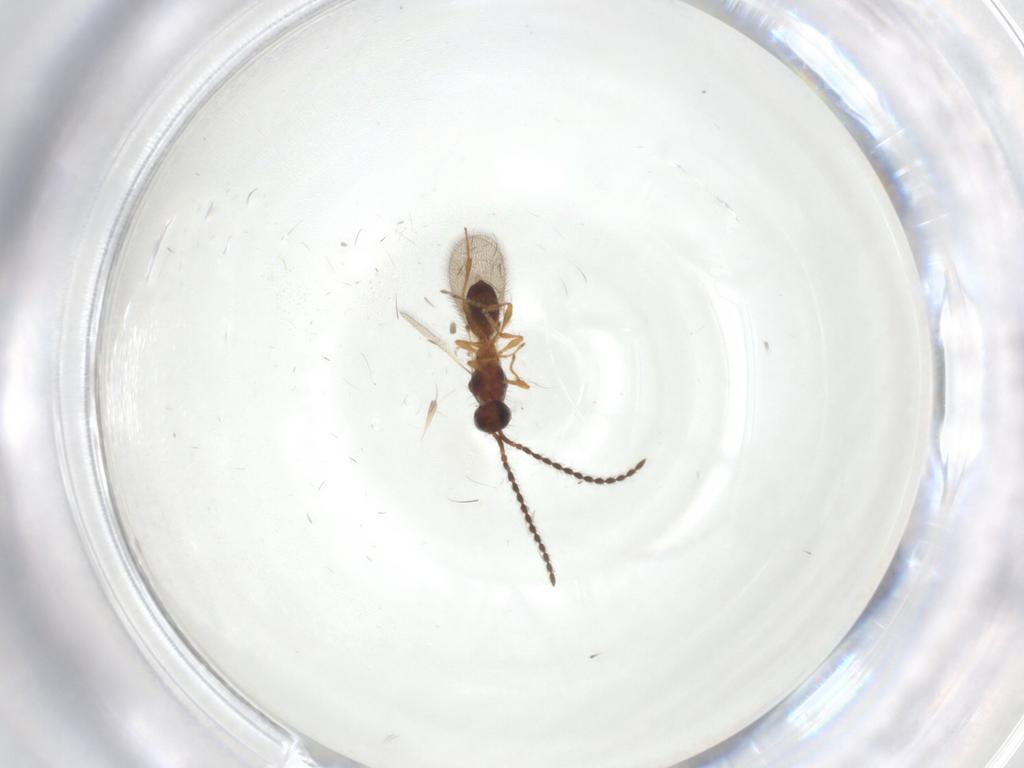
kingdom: Animalia
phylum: Arthropoda
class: Insecta
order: Hymenoptera
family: Diapriidae
